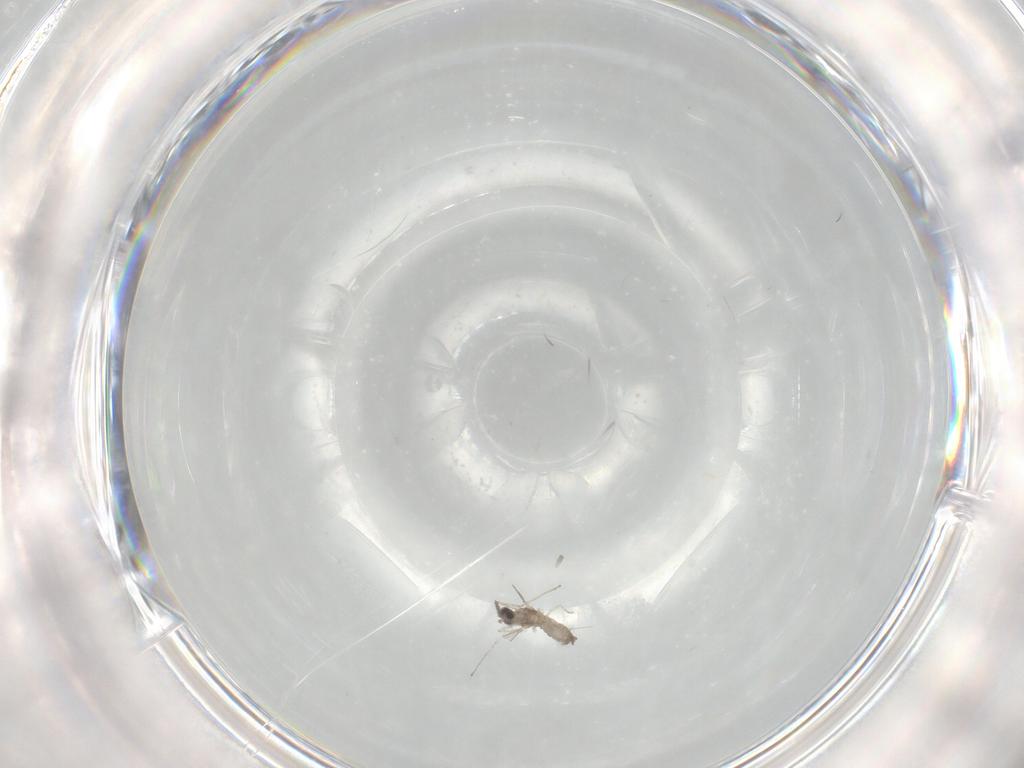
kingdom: Animalia
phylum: Arthropoda
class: Insecta
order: Diptera
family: Cecidomyiidae
